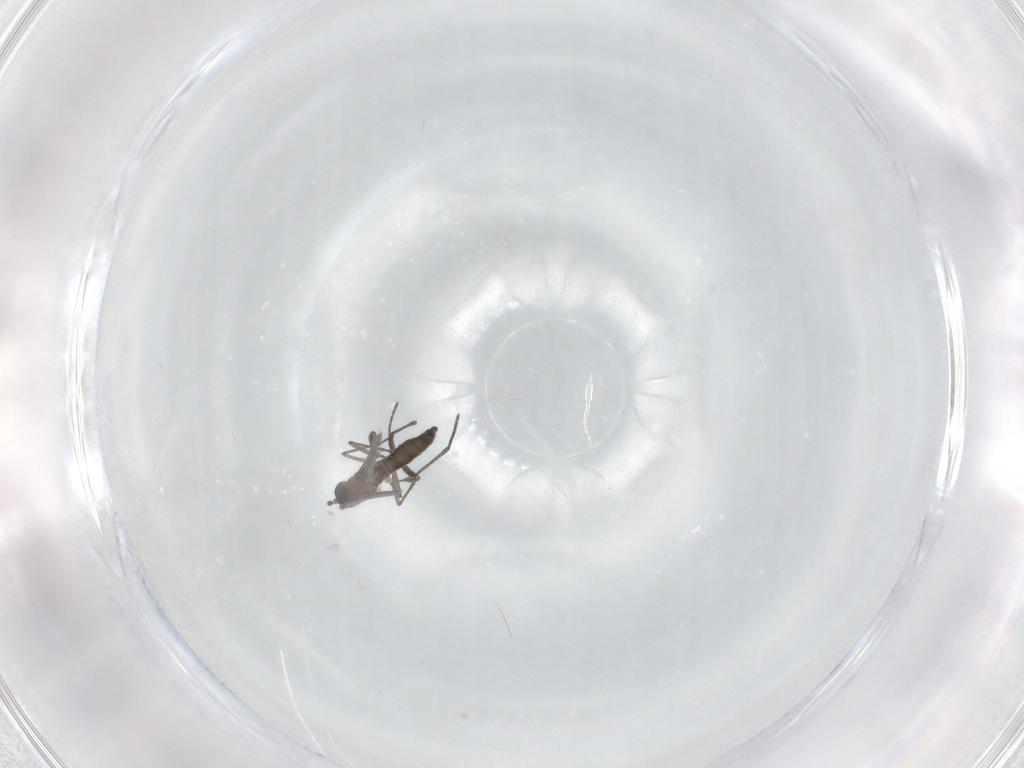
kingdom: Animalia
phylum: Arthropoda
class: Insecta
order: Diptera
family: Sciaridae
